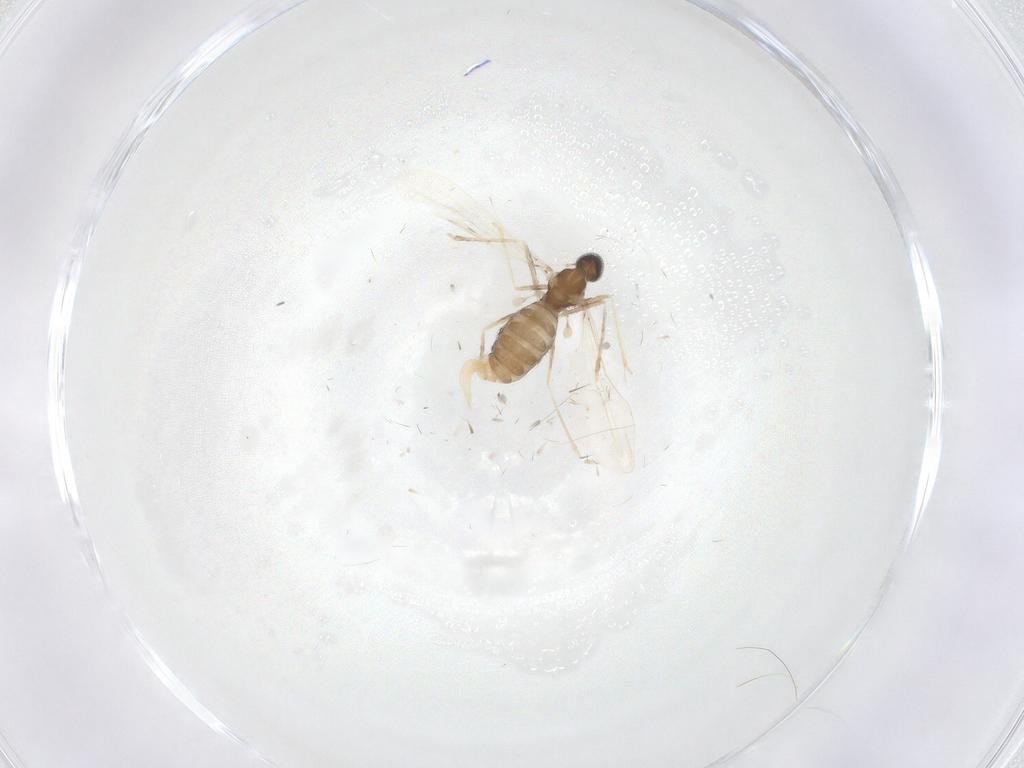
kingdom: Animalia
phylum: Arthropoda
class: Insecta
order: Diptera
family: Cecidomyiidae
